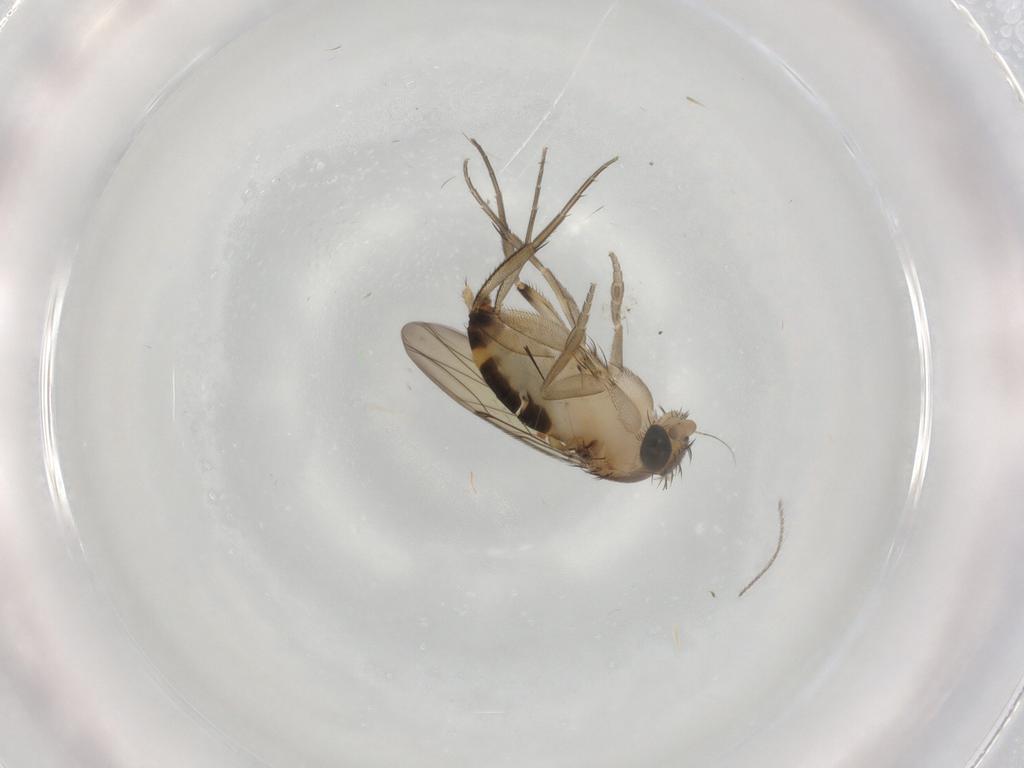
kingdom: Animalia
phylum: Arthropoda
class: Insecta
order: Diptera
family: Cecidomyiidae
